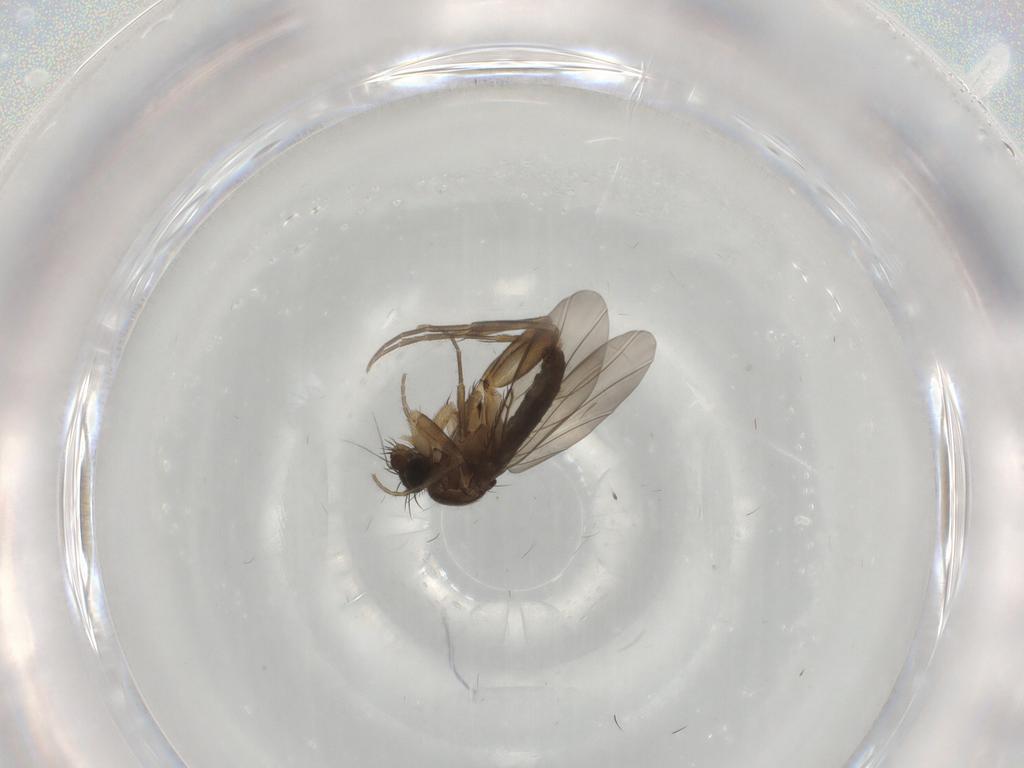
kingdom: Animalia
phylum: Arthropoda
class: Insecta
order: Diptera
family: Phoridae
